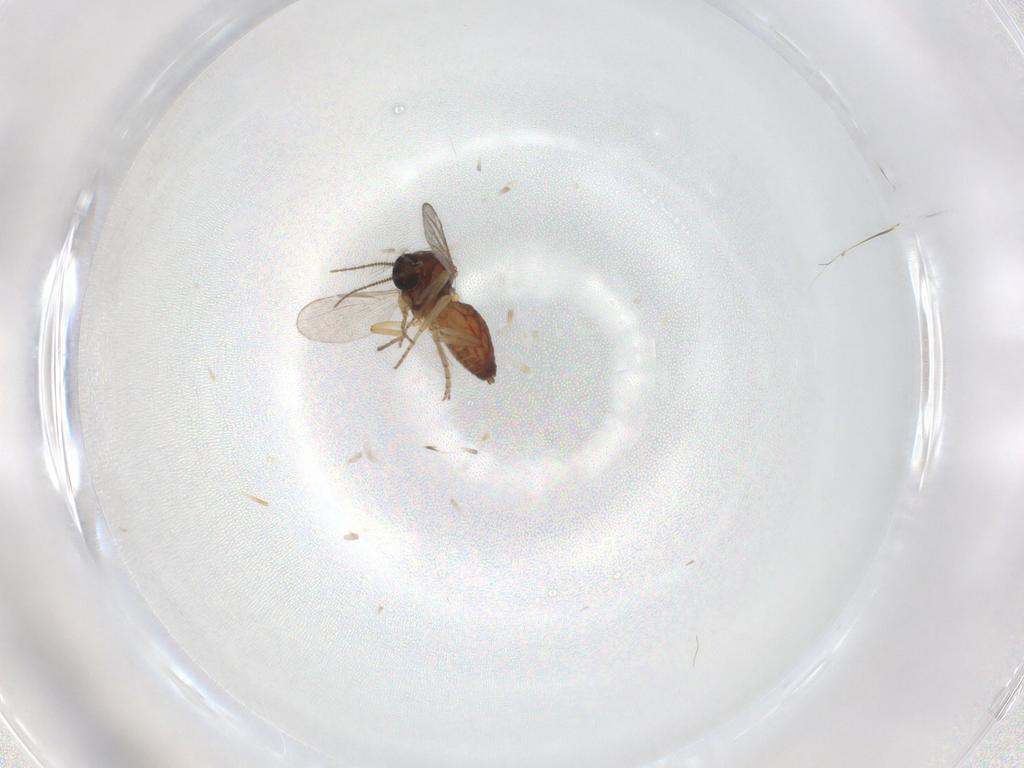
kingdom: Animalia
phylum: Arthropoda
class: Insecta
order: Diptera
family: Ceratopogonidae
